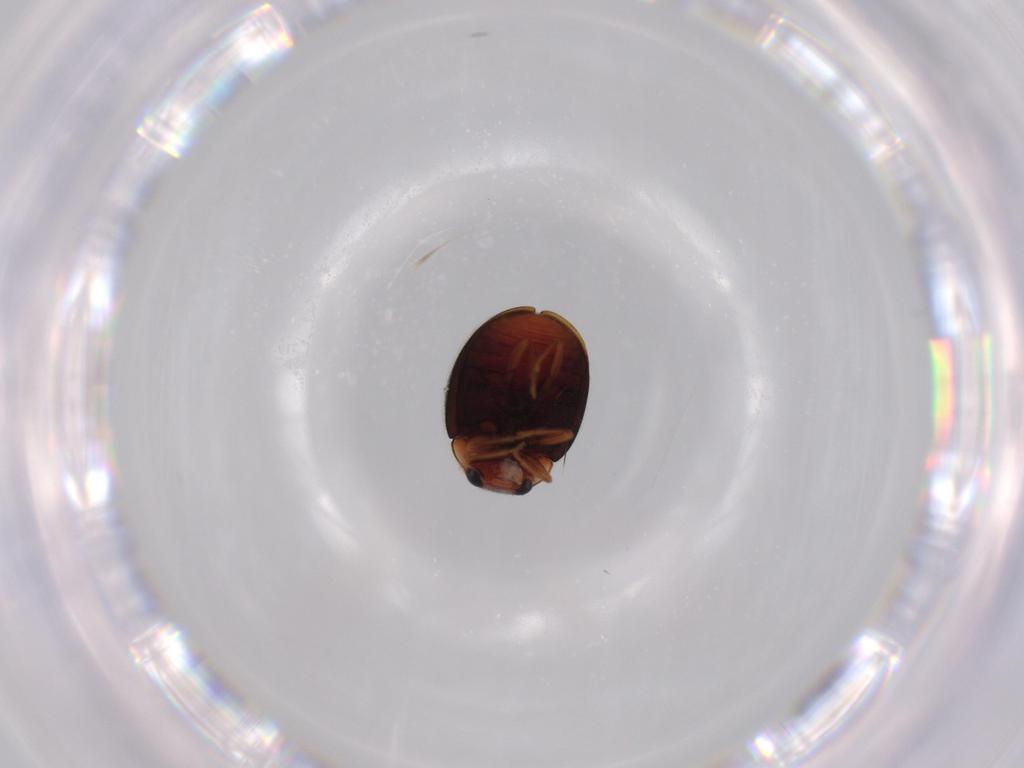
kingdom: Animalia
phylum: Arthropoda
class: Insecta
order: Coleoptera
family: Coccinellidae
